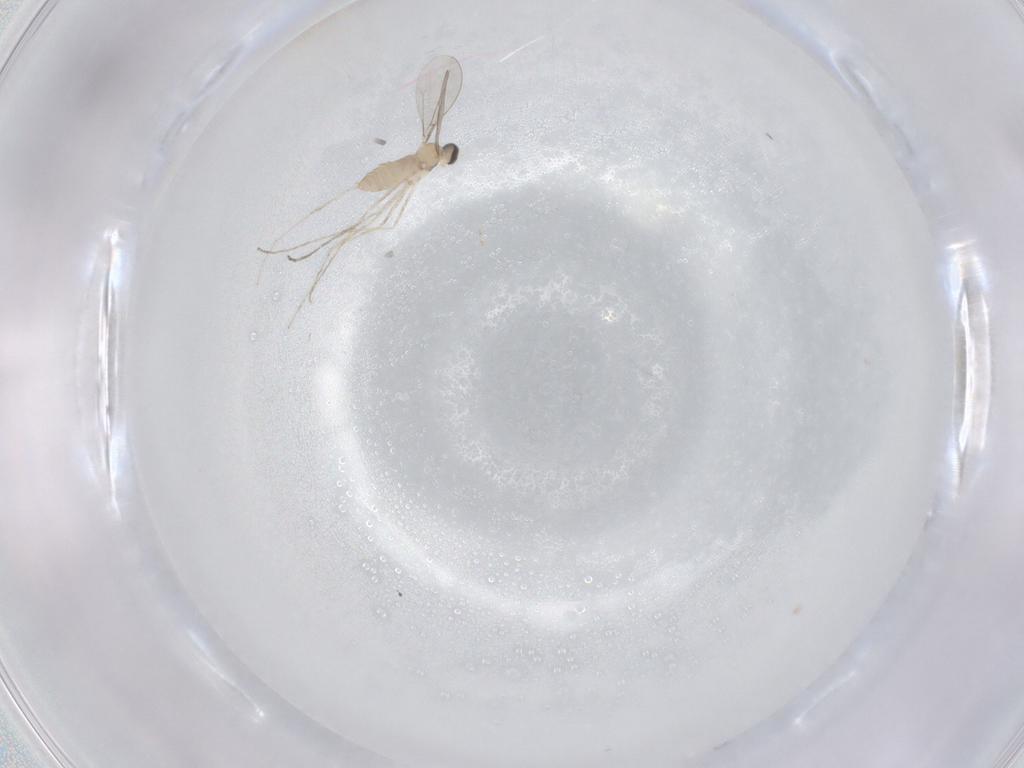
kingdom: Animalia
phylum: Arthropoda
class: Insecta
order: Diptera
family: Cecidomyiidae
